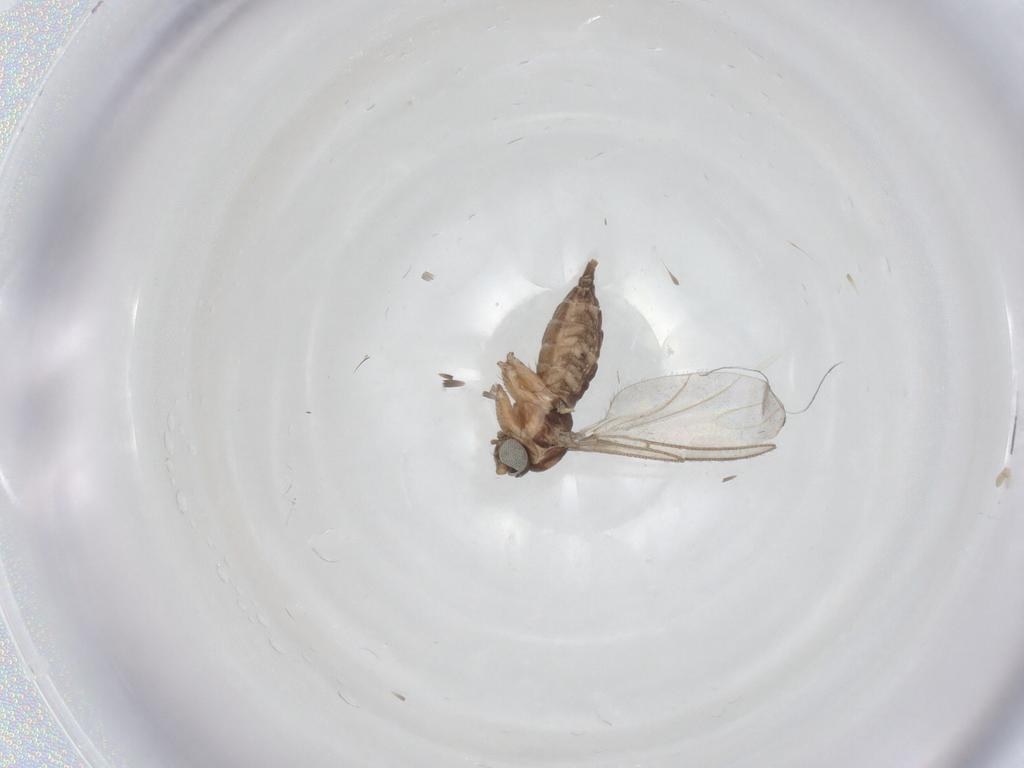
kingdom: Animalia
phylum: Arthropoda
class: Insecta
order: Diptera
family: Sciaridae
